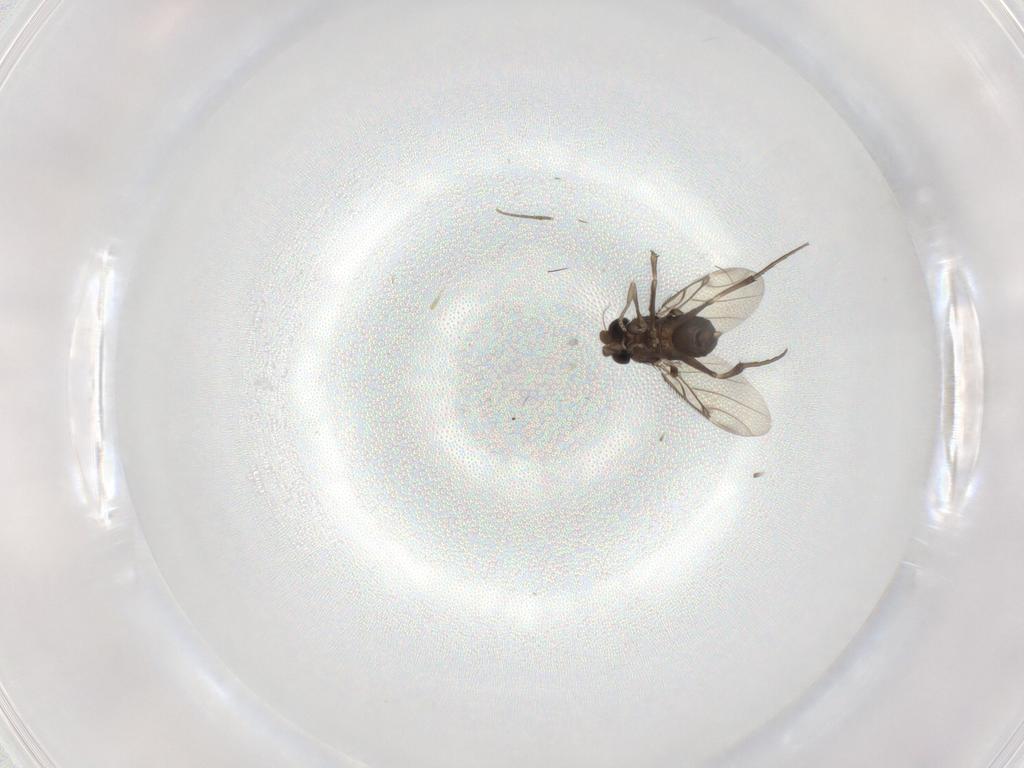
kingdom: Animalia
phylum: Arthropoda
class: Insecta
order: Diptera
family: Phoridae
